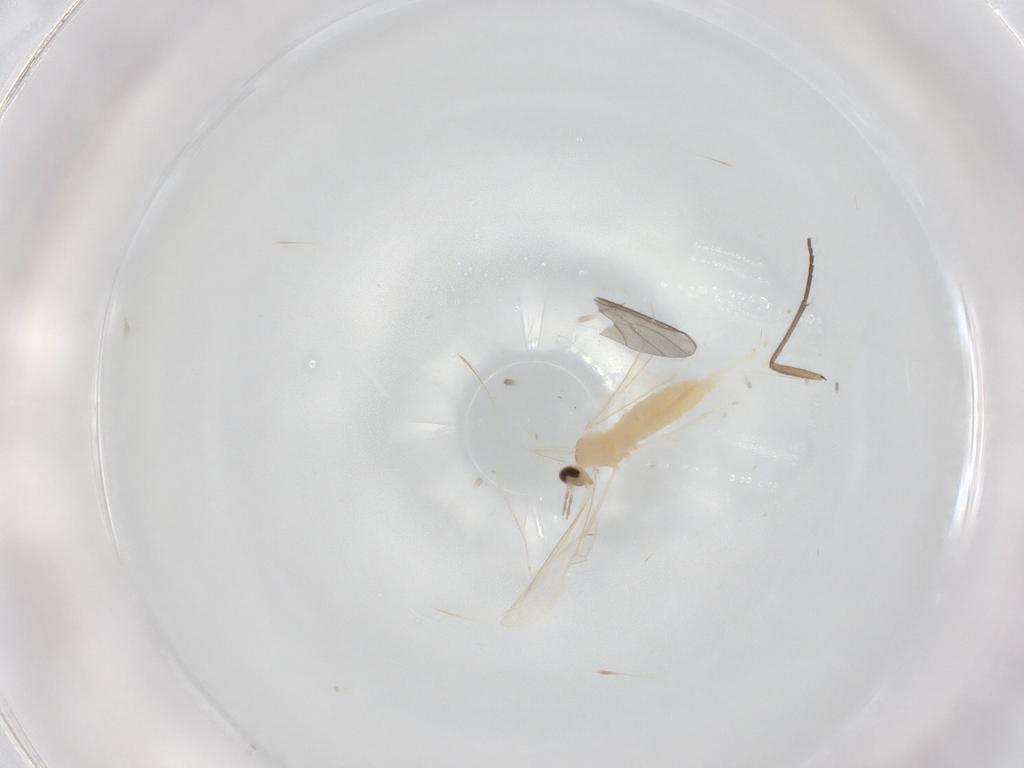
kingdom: Animalia
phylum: Arthropoda
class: Insecta
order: Diptera
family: Cecidomyiidae
